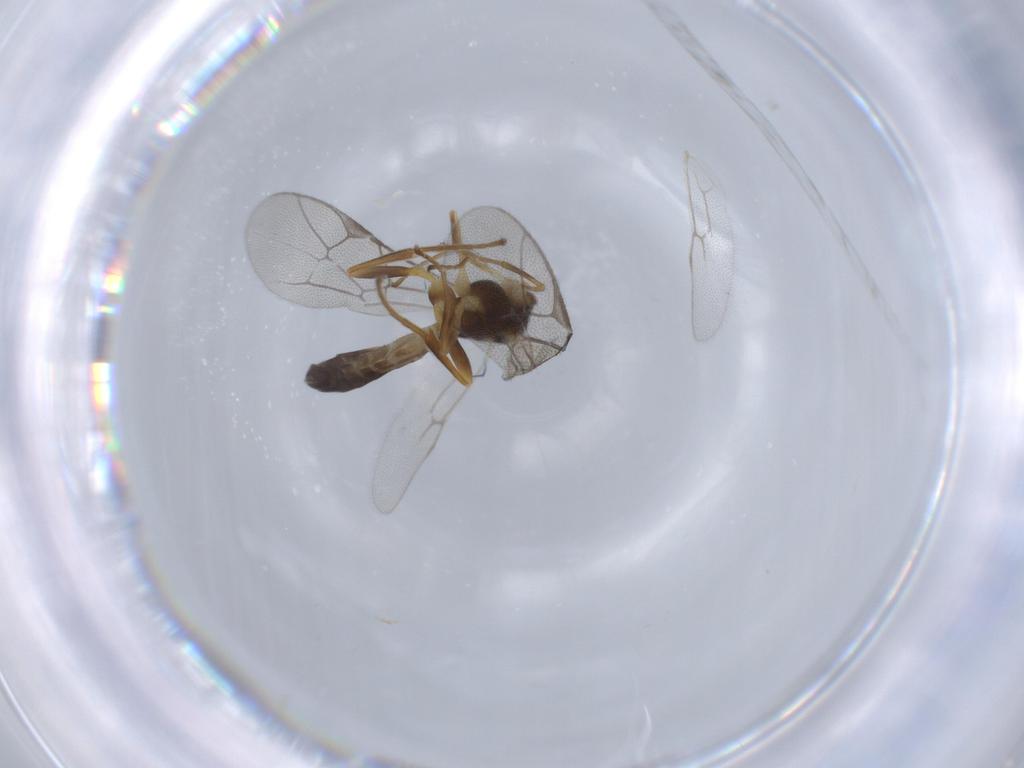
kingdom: Animalia
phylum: Arthropoda
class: Insecta
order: Hymenoptera
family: Ichneumonidae
